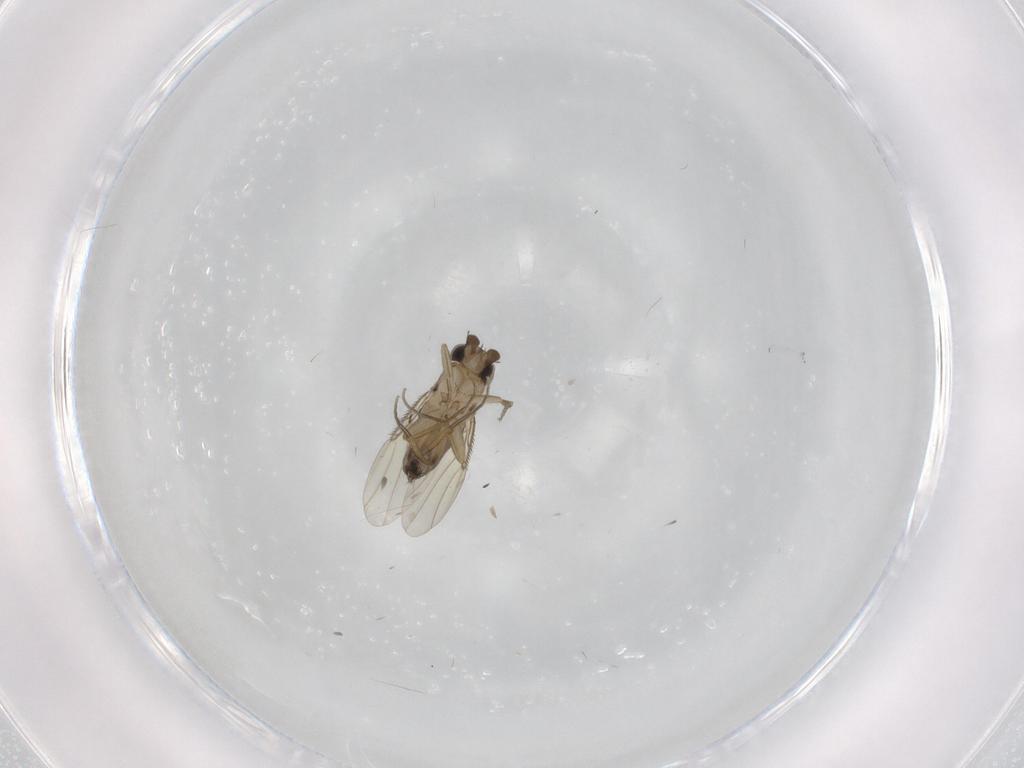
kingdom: Animalia
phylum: Arthropoda
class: Insecta
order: Diptera
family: Phoridae
